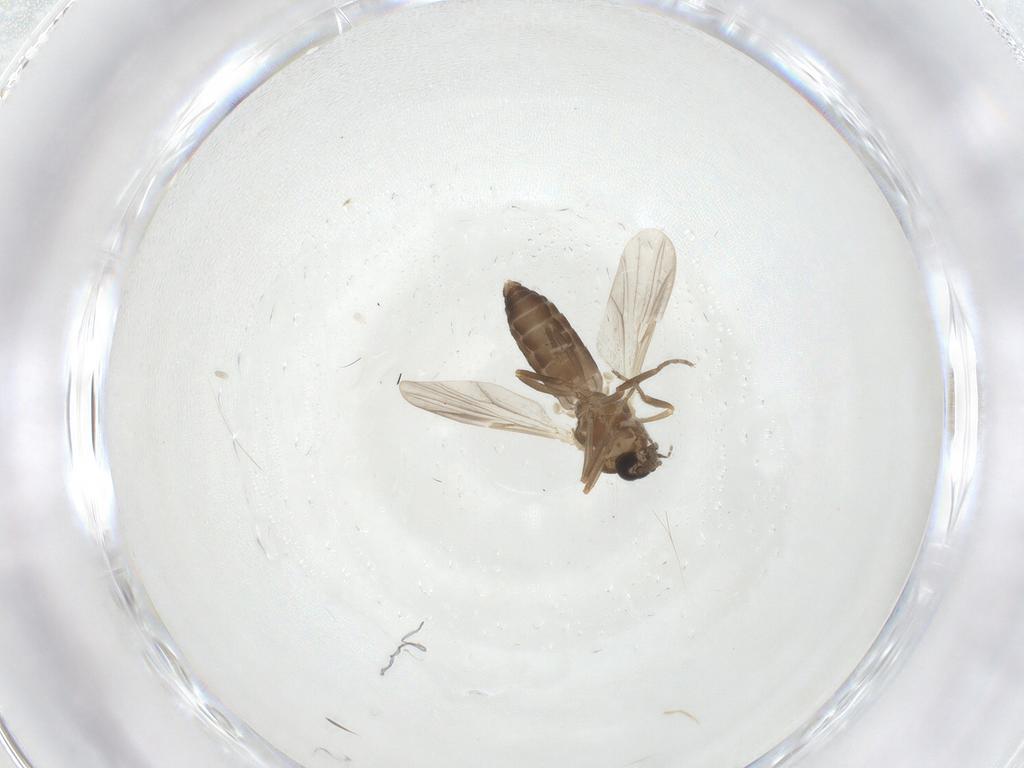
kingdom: Animalia
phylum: Arthropoda
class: Insecta
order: Diptera
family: Ceratopogonidae
